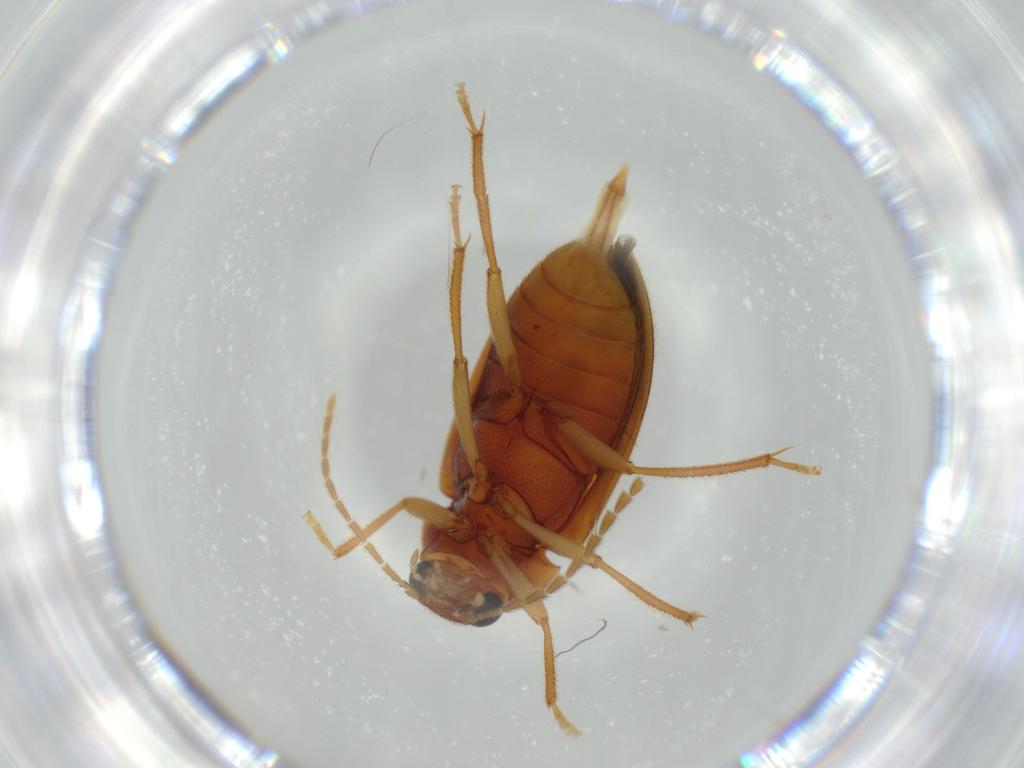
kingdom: Animalia
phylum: Arthropoda
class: Insecta
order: Coleoptera
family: Ptilodactylidae
